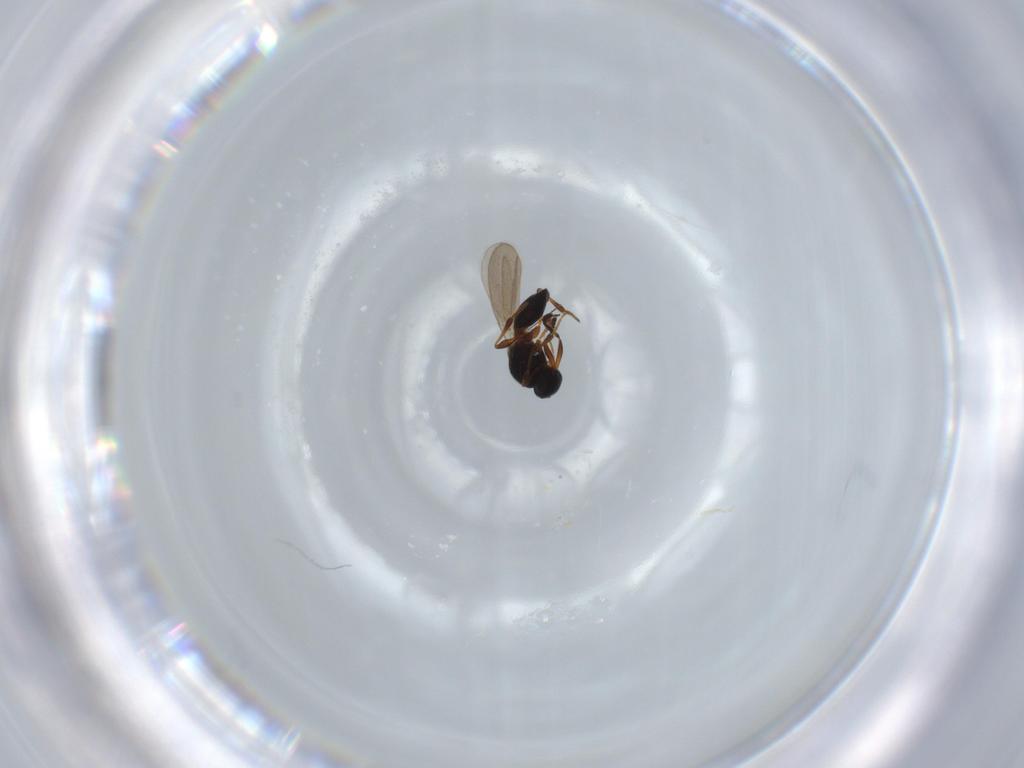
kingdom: Animalia
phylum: Arthropoda
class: Insecta
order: Hymenoptera
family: Platygastridae
